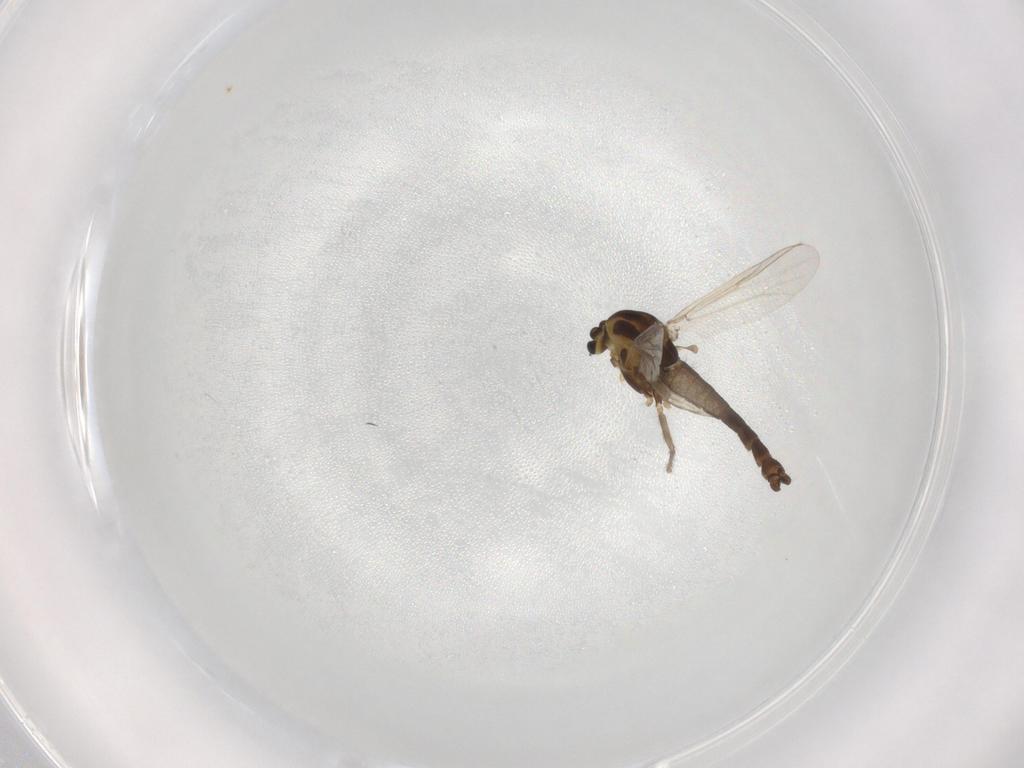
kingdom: Animalia
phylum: Arthropoda
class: Insecta
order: Diptera
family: Chironomidae
